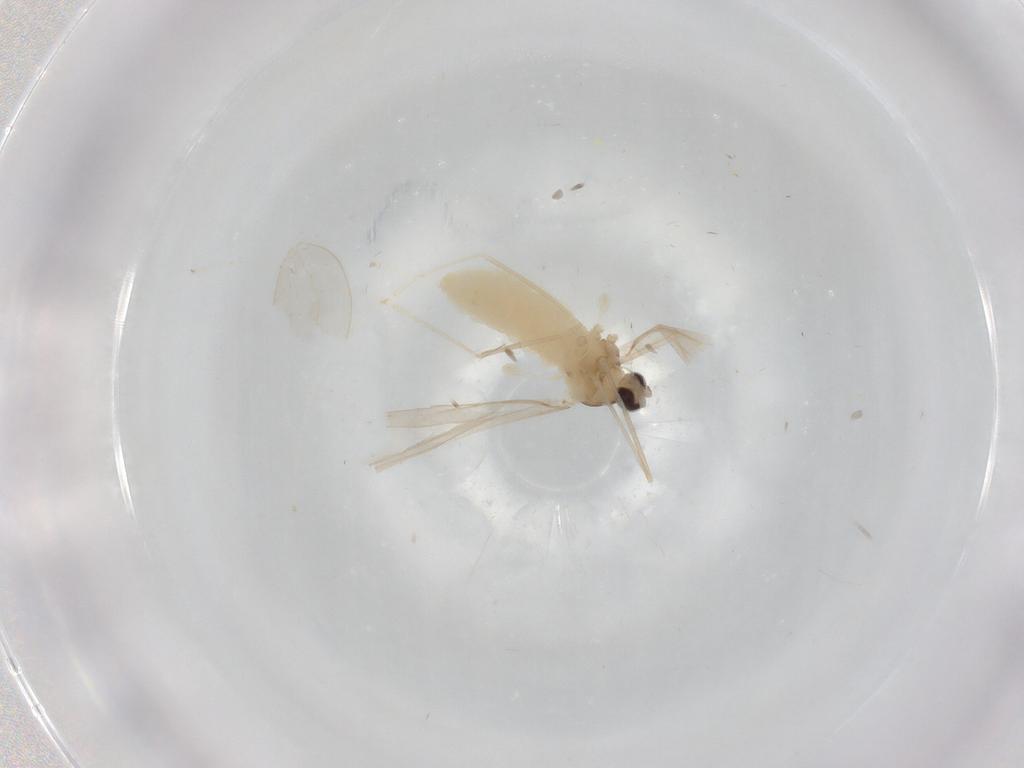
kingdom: Animalia
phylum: Arthropoda
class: Insecta
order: Diptera
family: Cecidomyiidae
